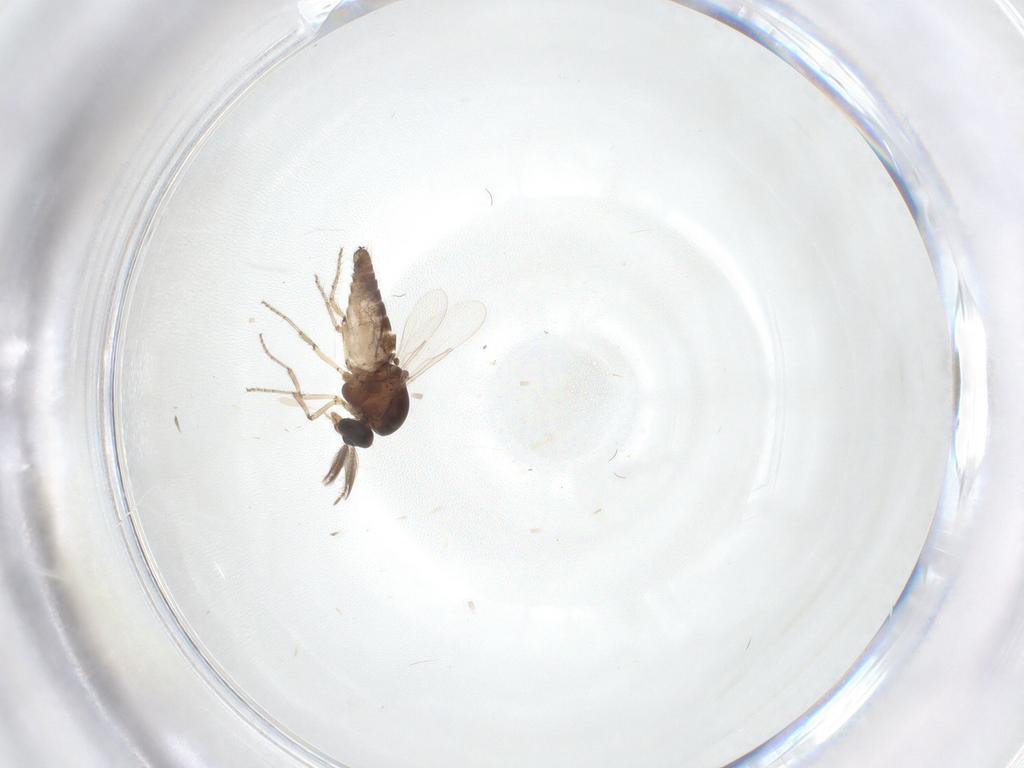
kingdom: Animalia
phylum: Arthropoda
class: Insecta
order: Diptera
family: Ceratopogonidae
